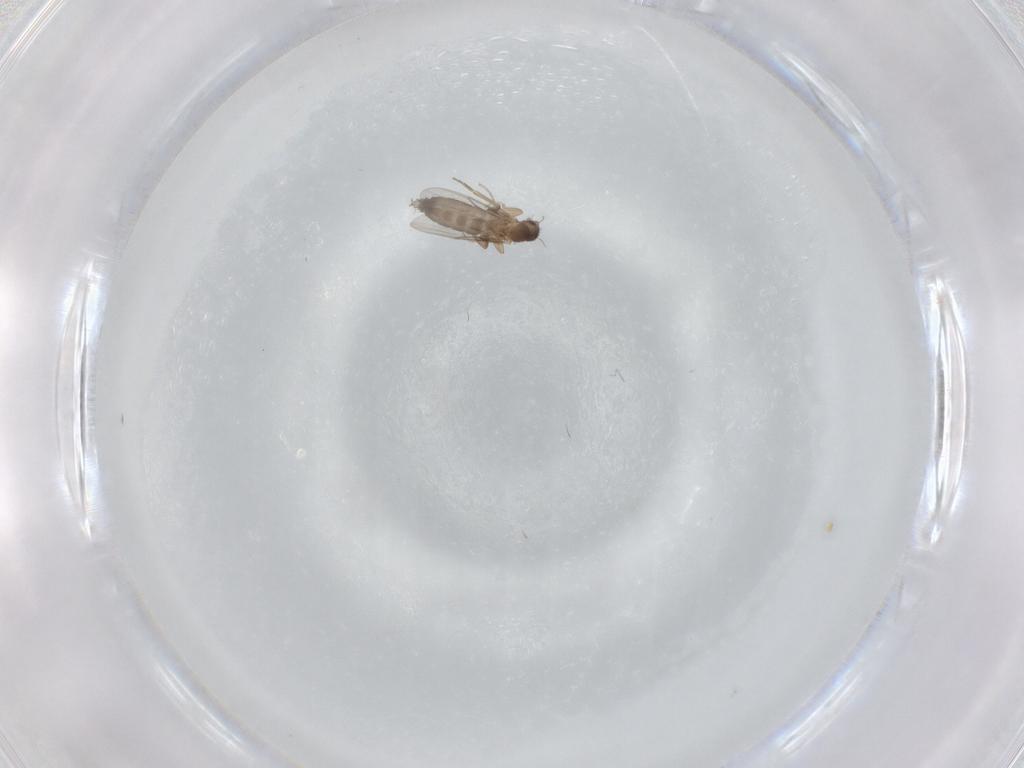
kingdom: Animalia
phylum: Arthropoda
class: Insecta
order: Diptera
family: Bibionidae
